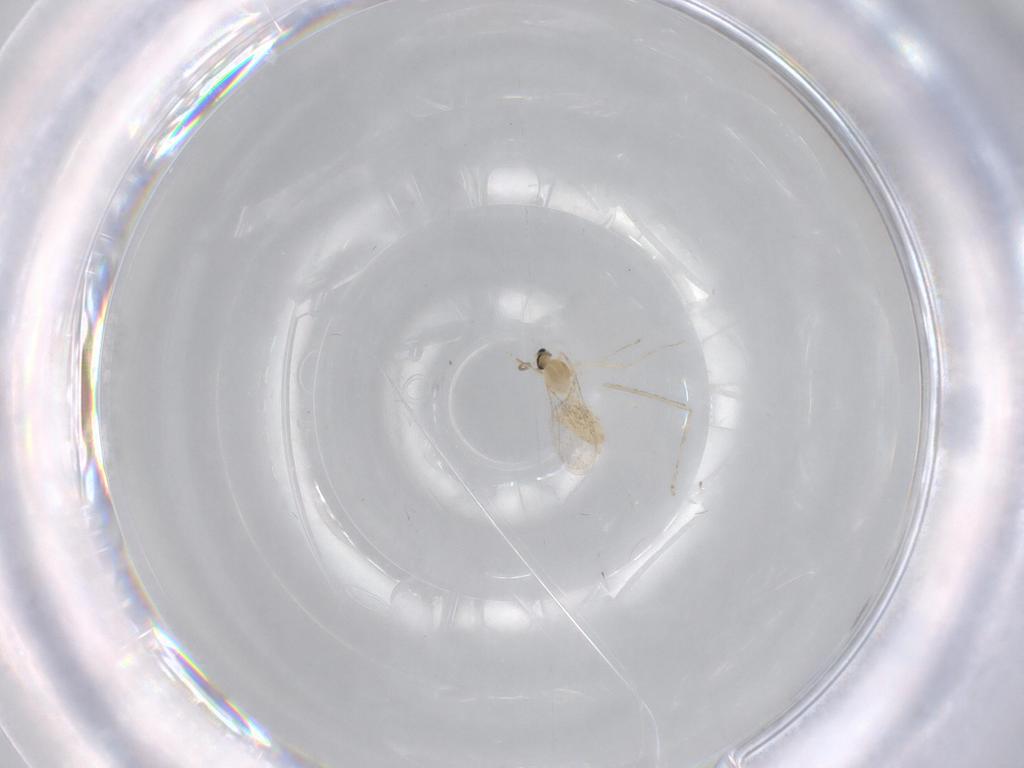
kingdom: Animalia
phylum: Arthropoda
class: Insecta
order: Diptera
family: Cecidomyiidae
